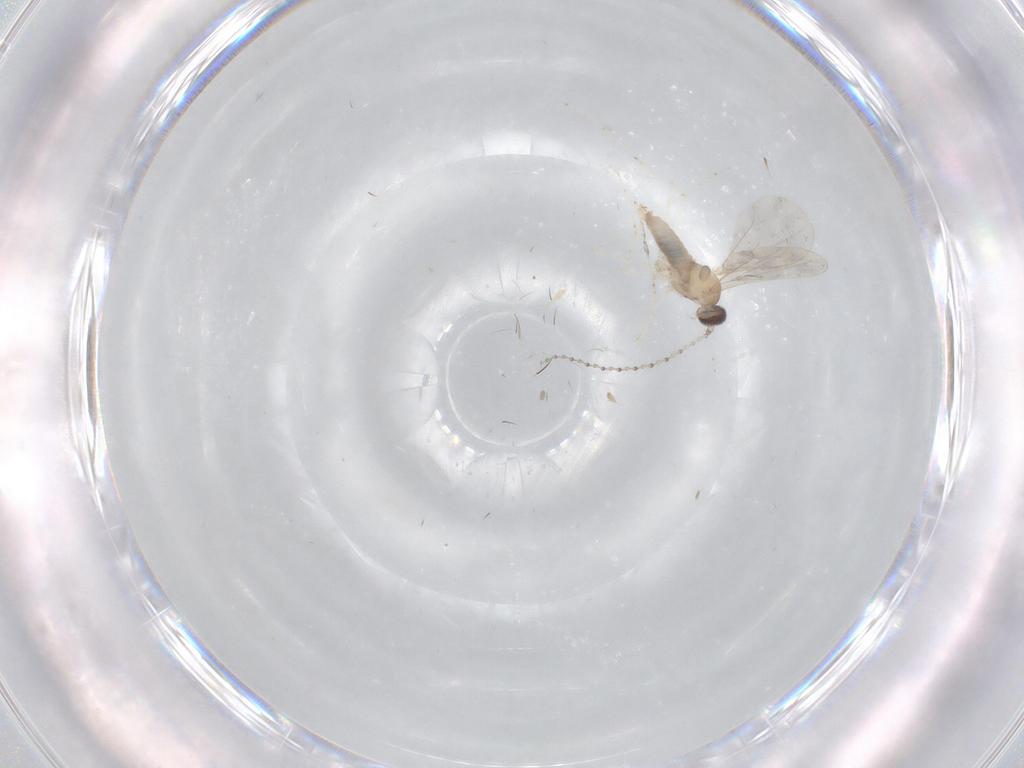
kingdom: Animalia
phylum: Arthropoda
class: Insecta
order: Diptera
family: Cecidomyiidae
